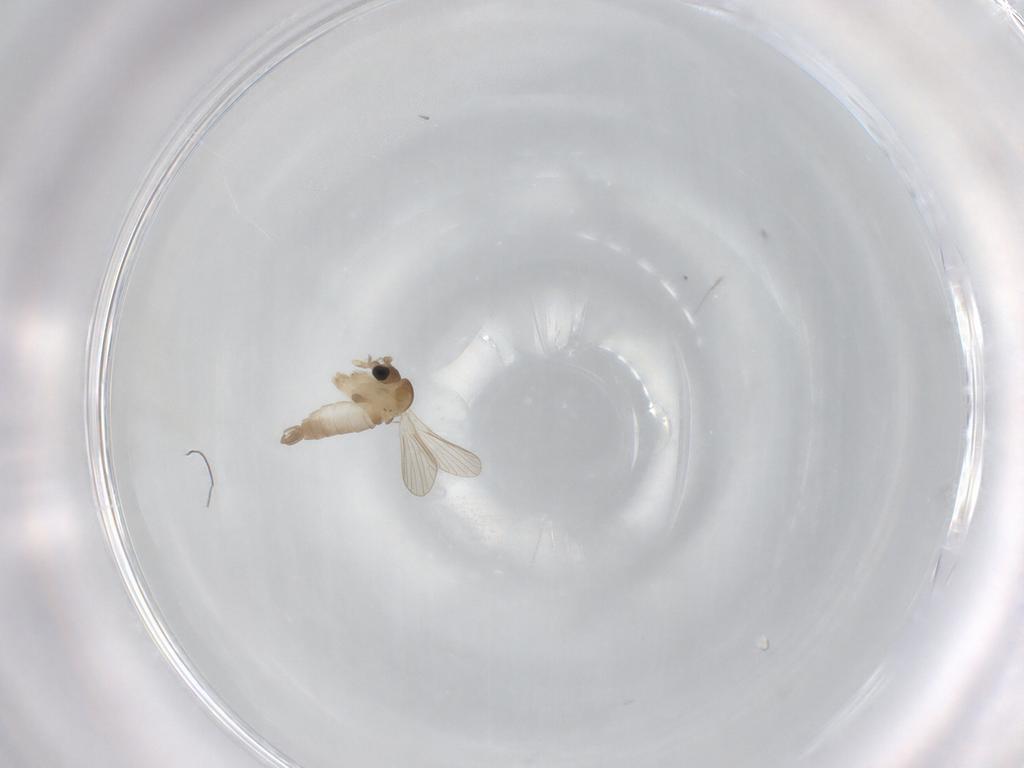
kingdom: Animalia
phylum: Arthropoda
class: Insecta
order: Diptera
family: Psychodidae
